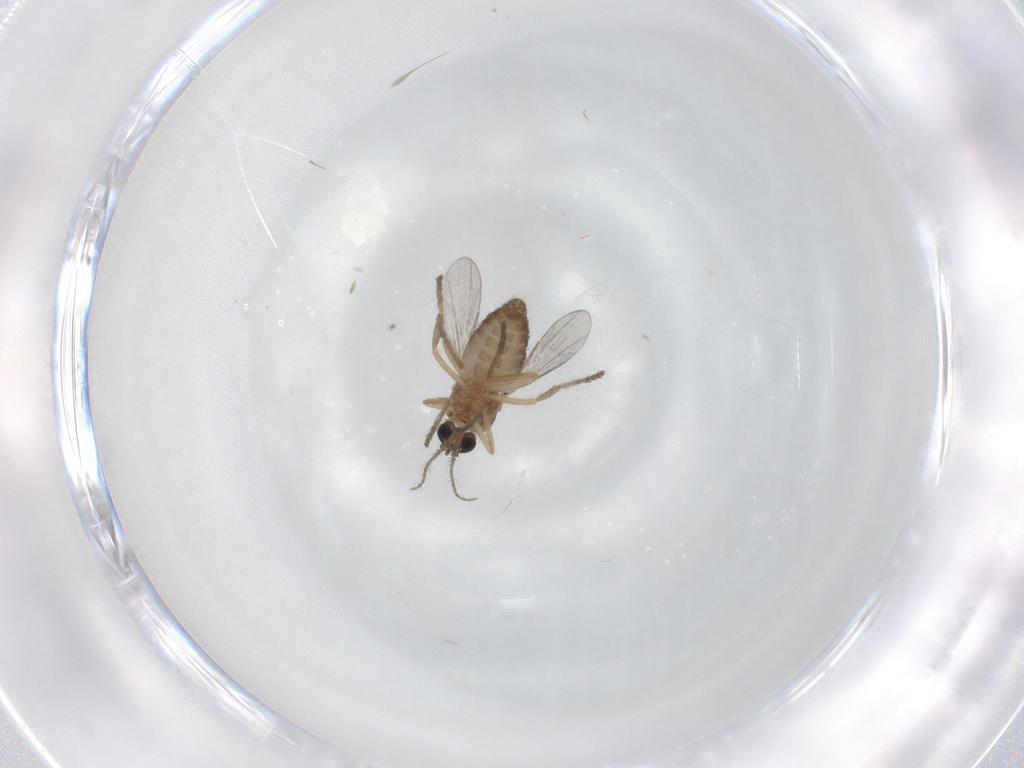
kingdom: Animalia
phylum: Arthropoda
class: Insecta
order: Diptera
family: Ceratopogonidae
